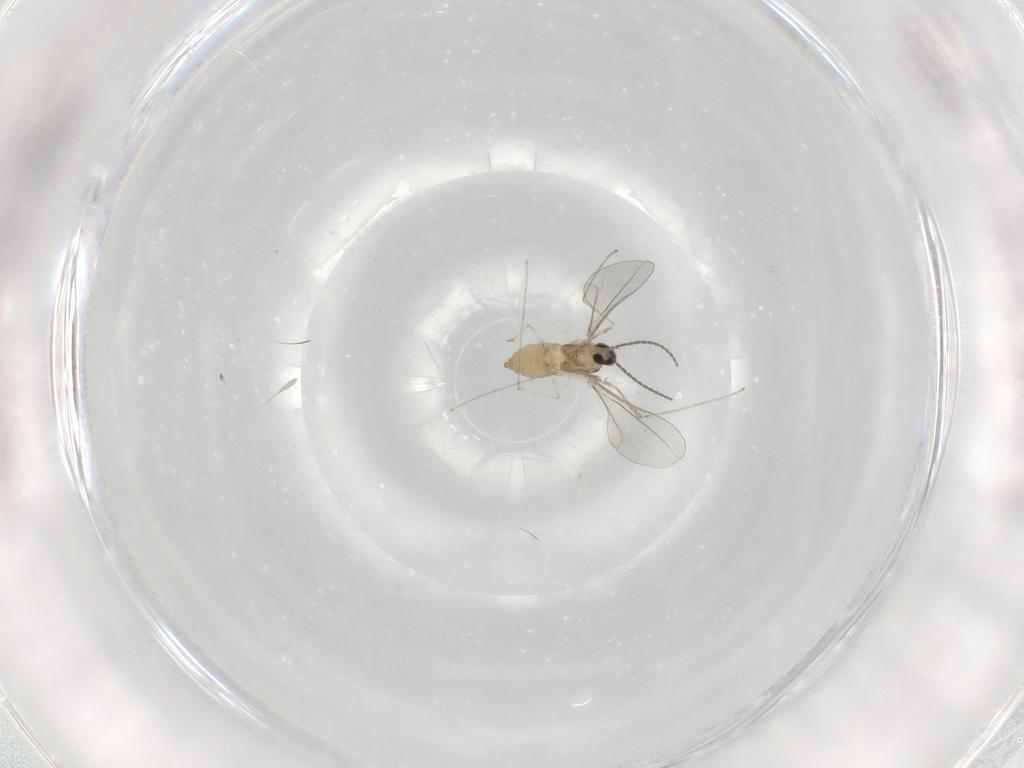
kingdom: Animalia
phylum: Arthropoda
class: Insecta
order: Diptera
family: Cecidomyiidae
